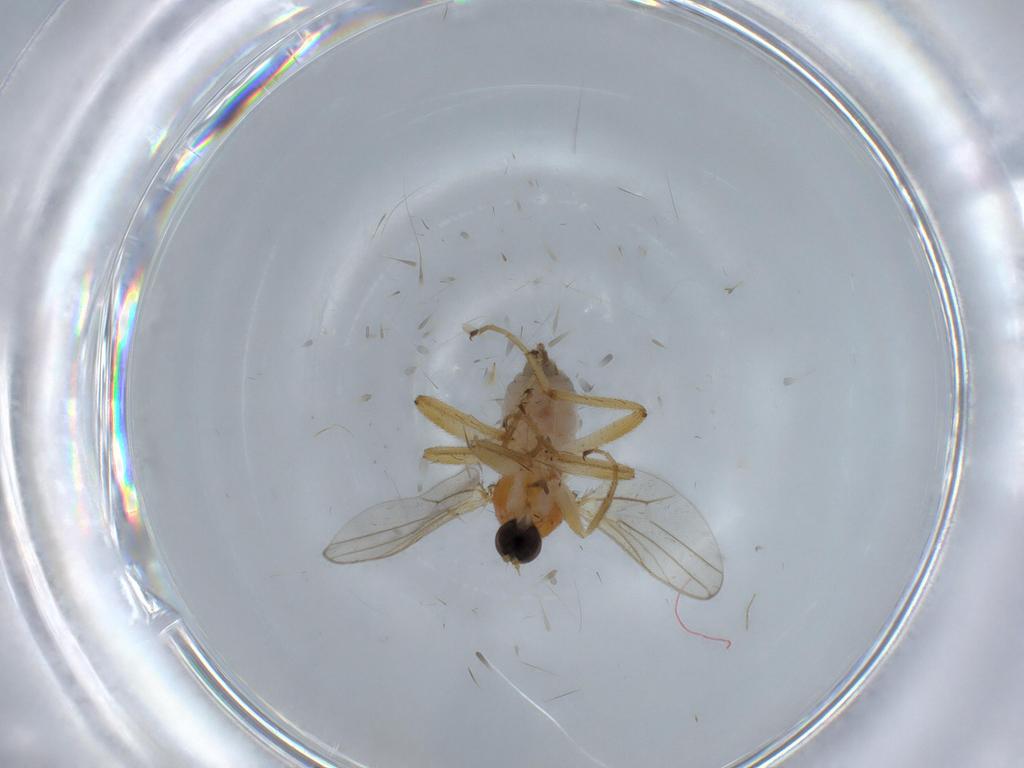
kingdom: Animalia
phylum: Arthropoda
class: Insecta
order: Diptera
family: Hybotidae
